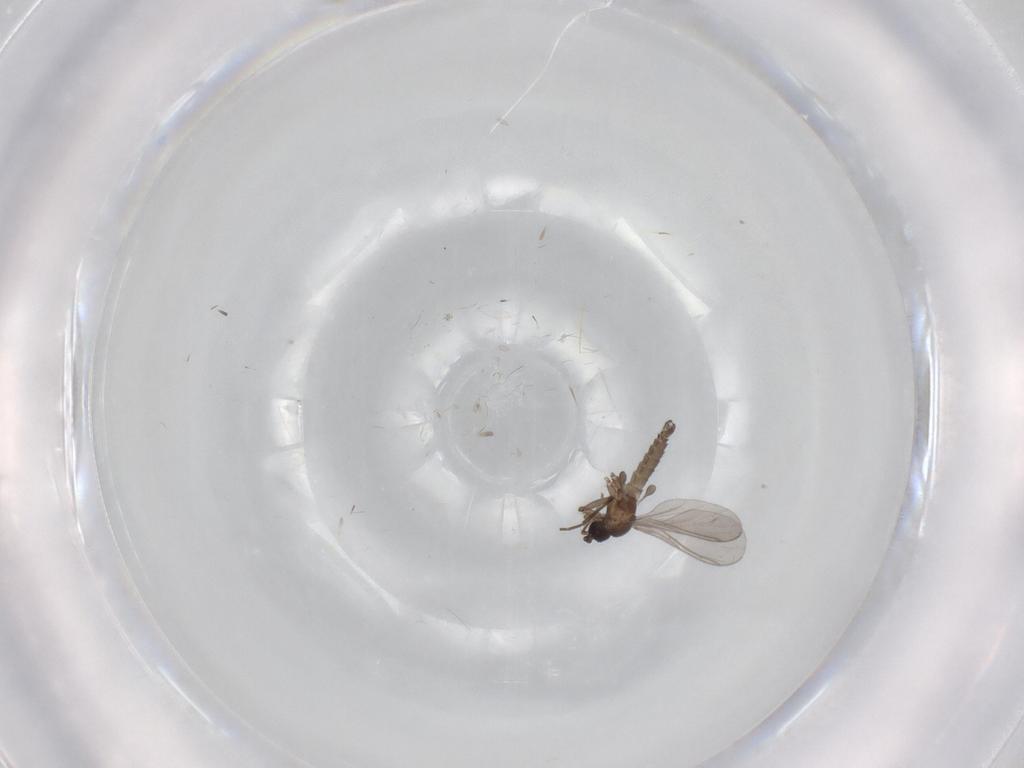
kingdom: Animalia
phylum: Arthropoda
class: Insecta
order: Diptera
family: Sciaridae
